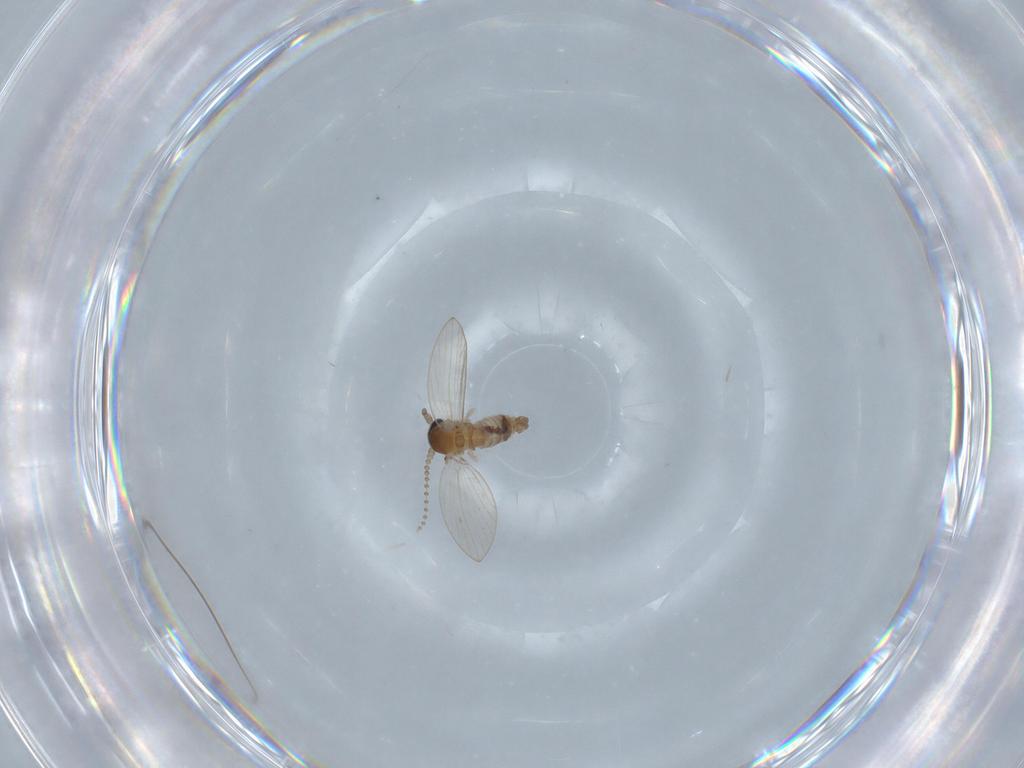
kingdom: Animalia
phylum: Arthropoda
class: Insecta
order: Diptera
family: Psychodidae
